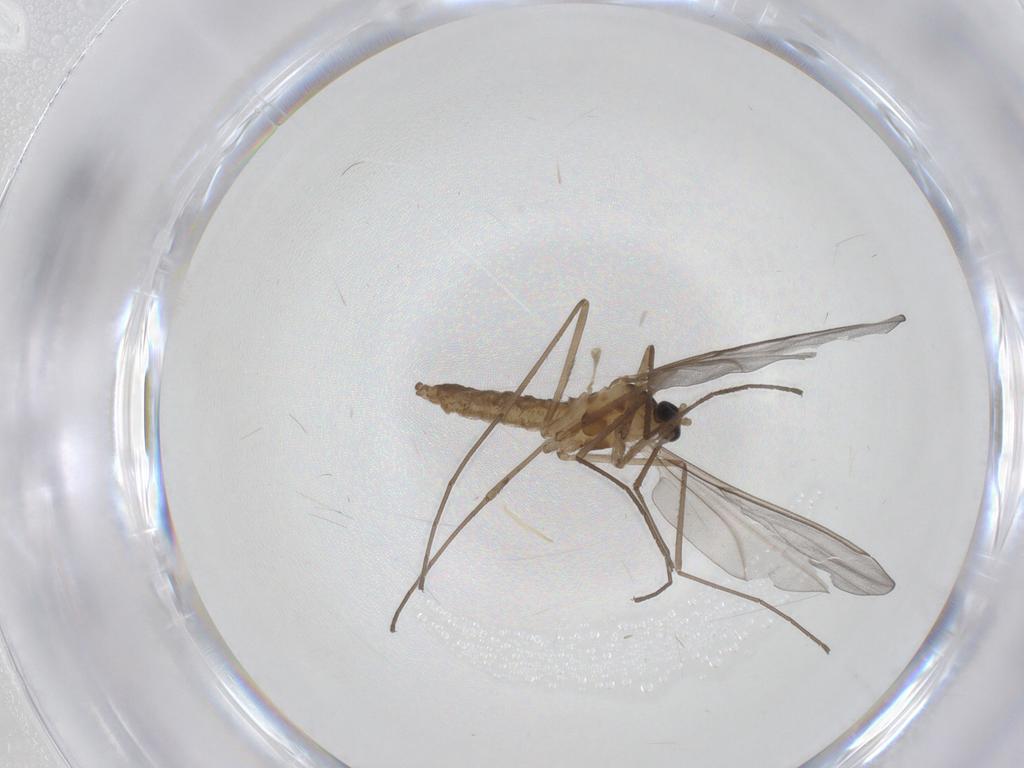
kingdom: Animalia
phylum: Arthropoda
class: Insecta
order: Diptera
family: Cecidomyiidae
